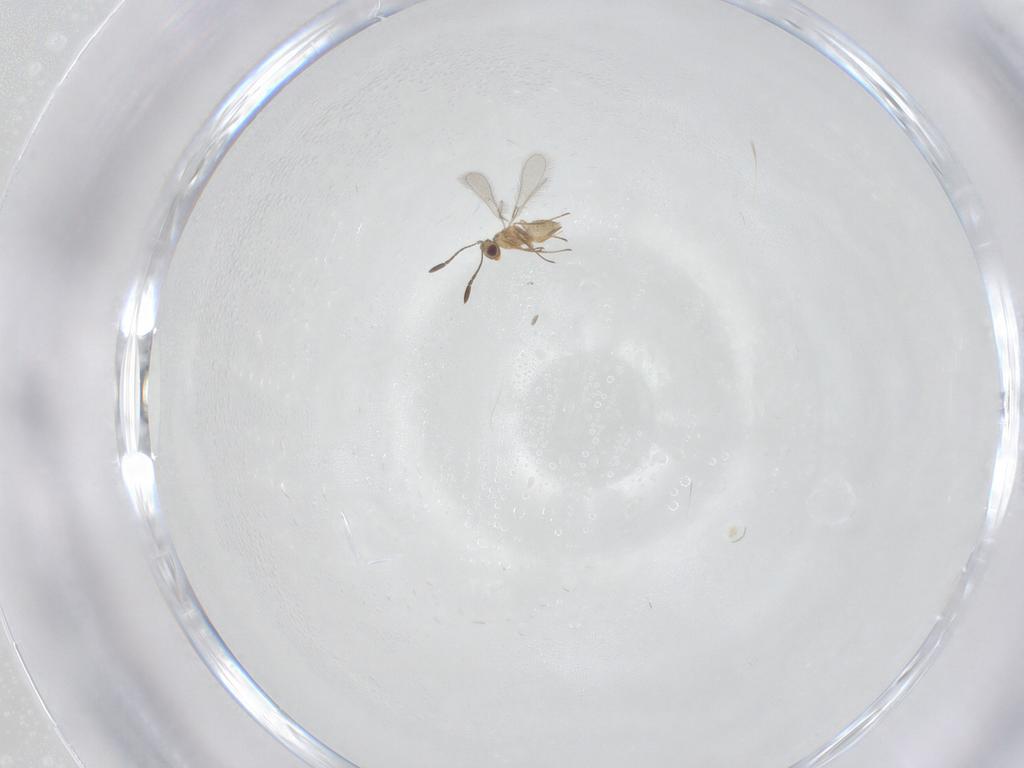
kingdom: Animalia
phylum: Arthropoda
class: Insecta
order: Hymenoptera
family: Mymaridae
